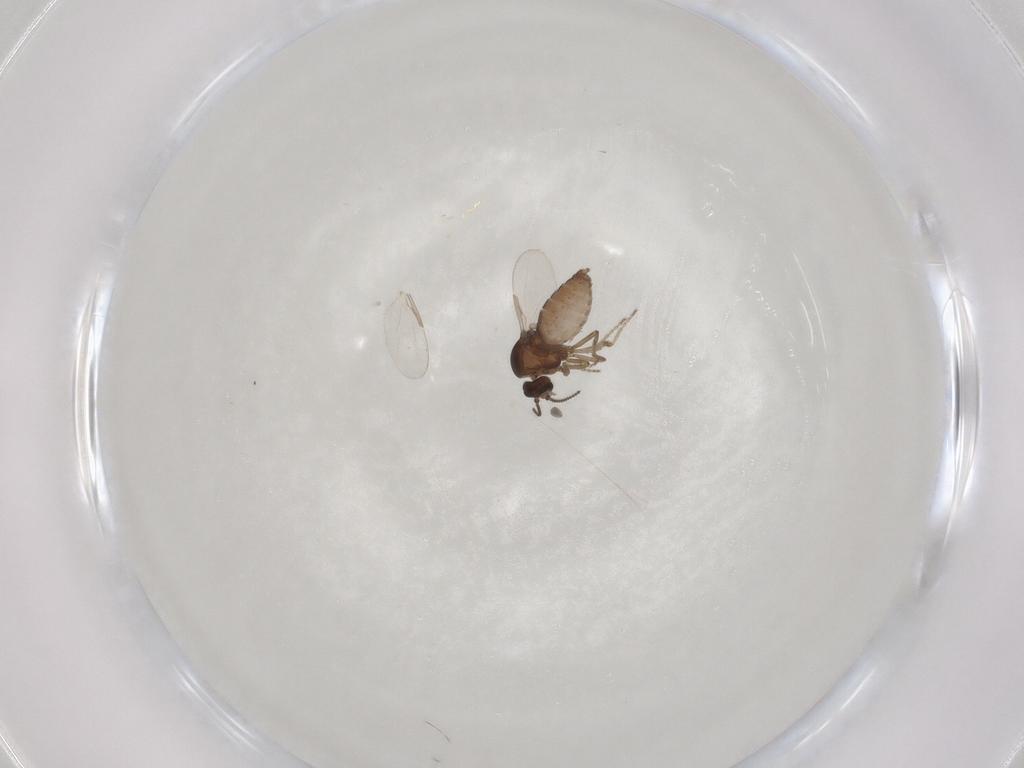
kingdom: Animalia
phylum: Arthropoda
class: Insecta
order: Diptera
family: Ceratopogonidae
